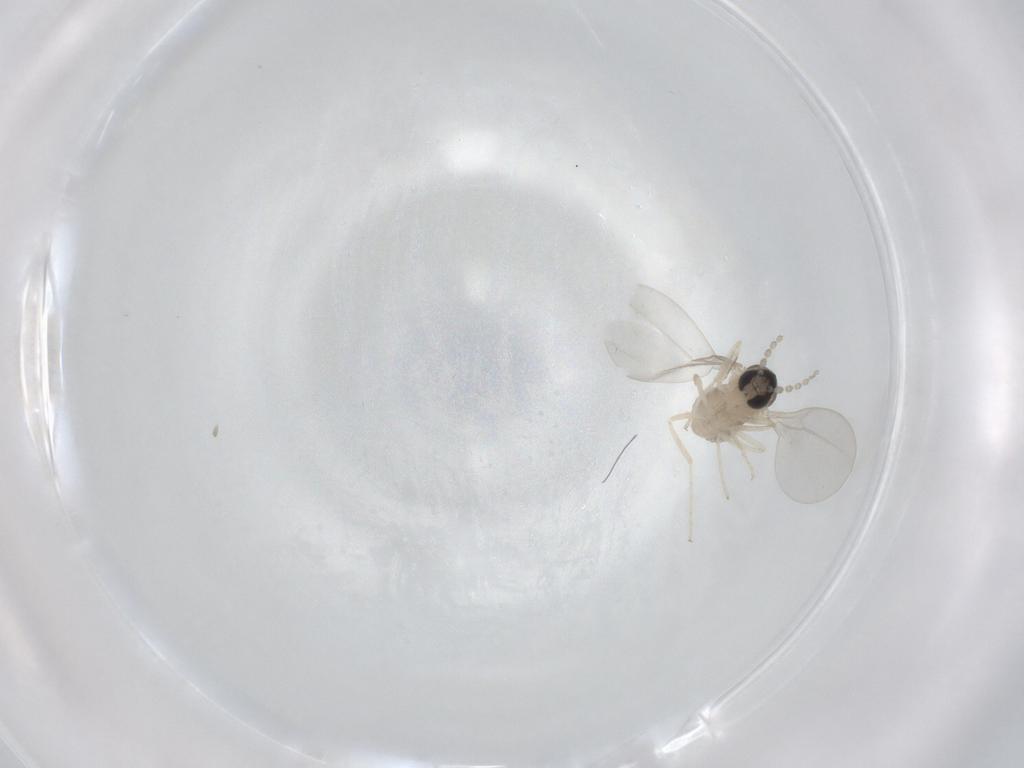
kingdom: Animalia
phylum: Arthropoda
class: Insecta
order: Diptera
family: Cecidomyiidae
